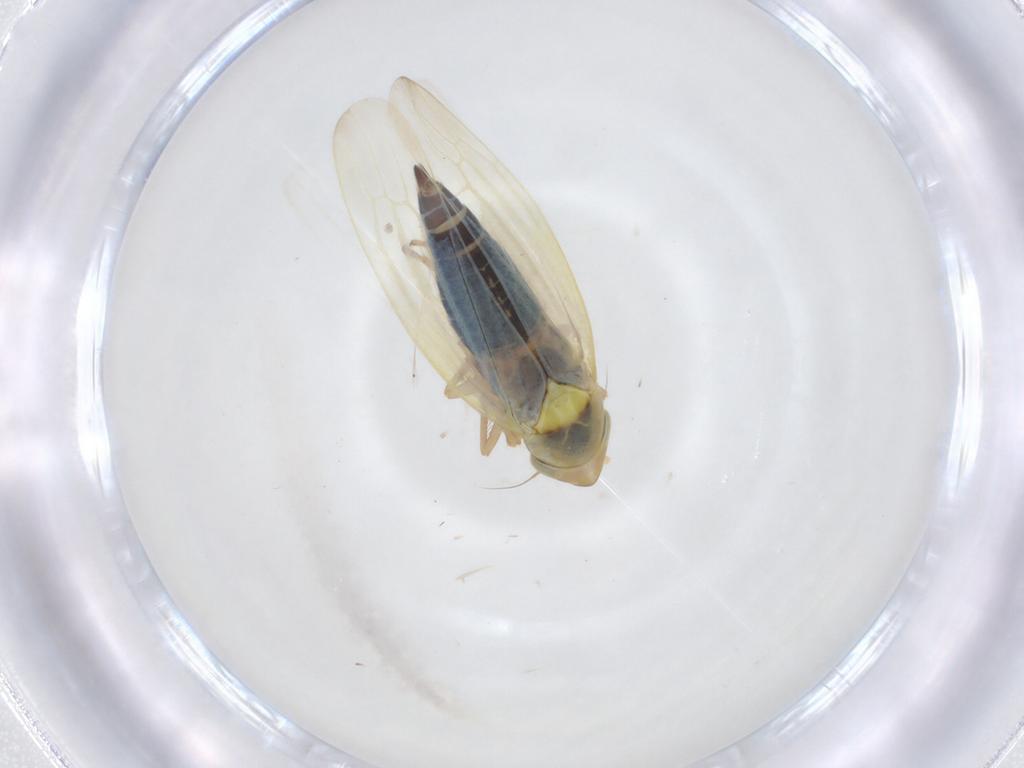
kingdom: Animalia
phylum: Arthropoda
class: Insecta
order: Hemiptera
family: Cicadellidae
